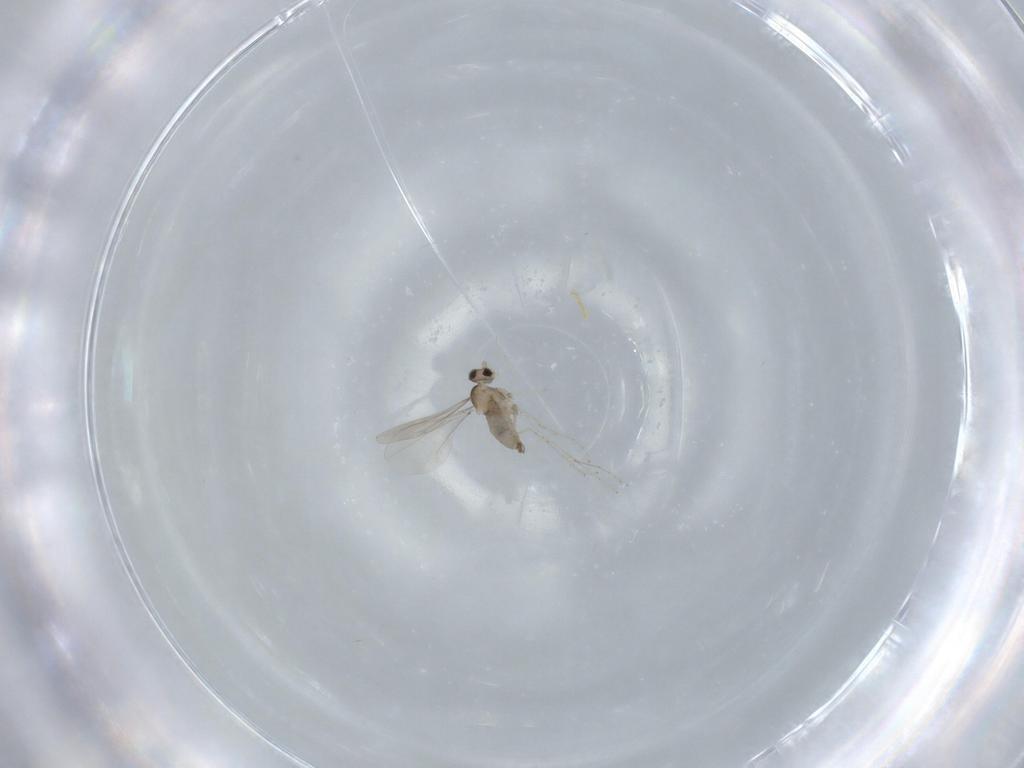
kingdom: Animalia
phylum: Arthropoda
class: Insecta
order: Diptera
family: Cecidomyiidae
